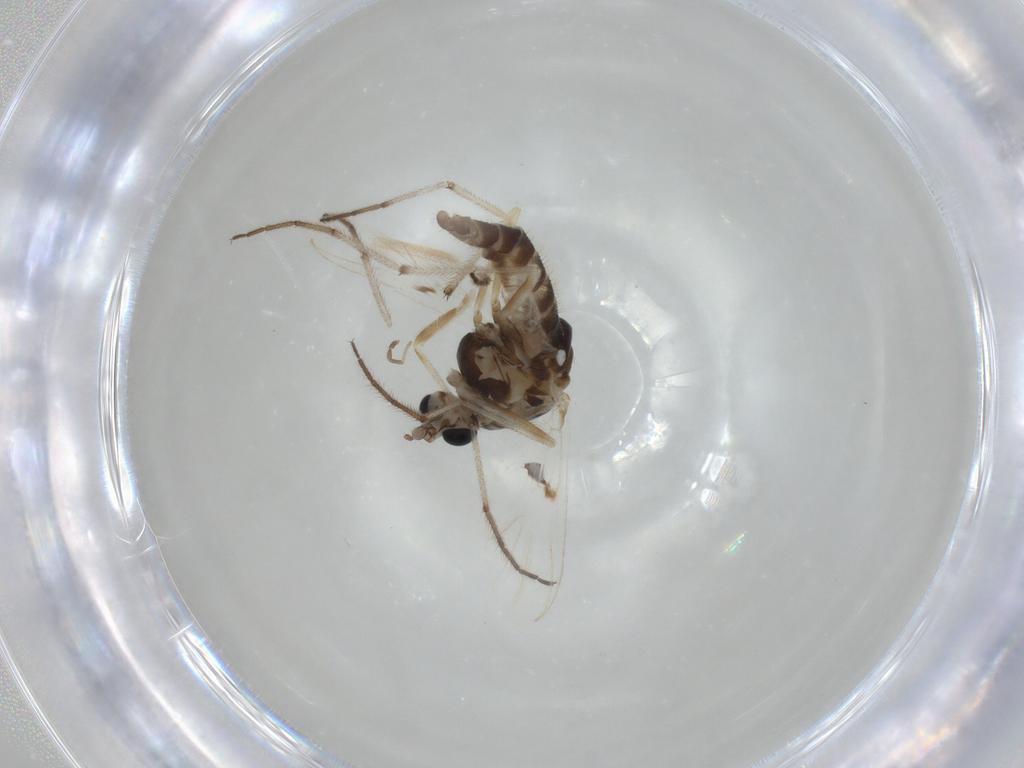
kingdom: Animalia
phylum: Arthropoda
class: Insecta
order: Diptera
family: Chironomidae
